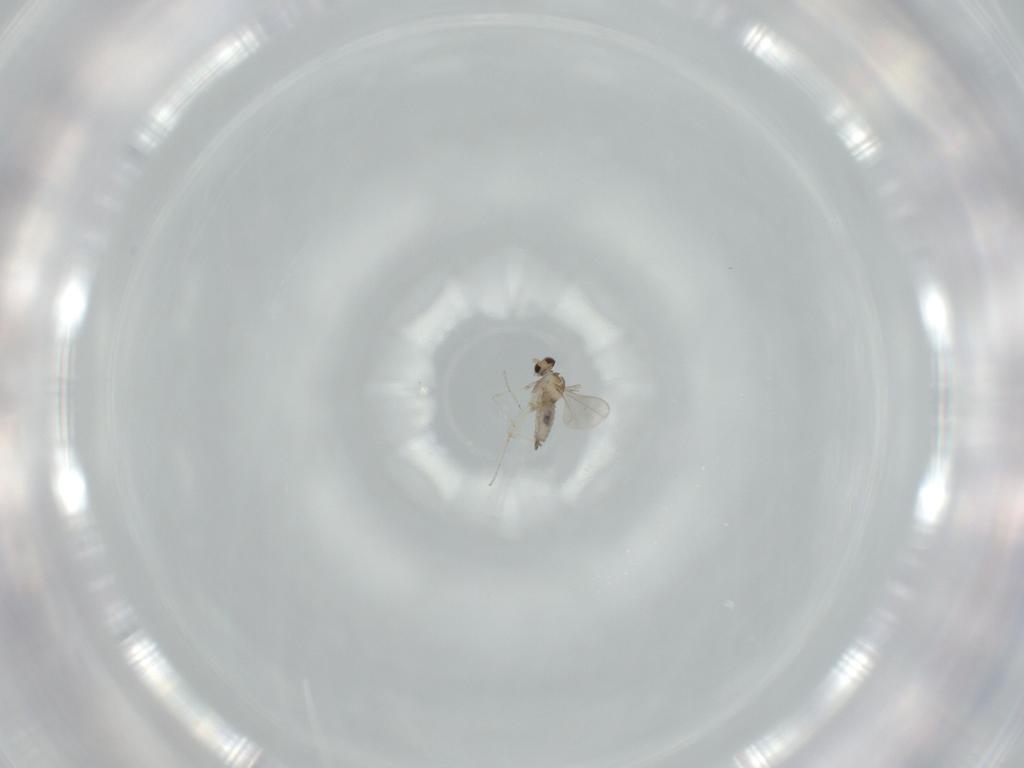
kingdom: Animalia
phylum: Arthropoda
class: Insecta
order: Diptera
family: Cecidomyiidae
